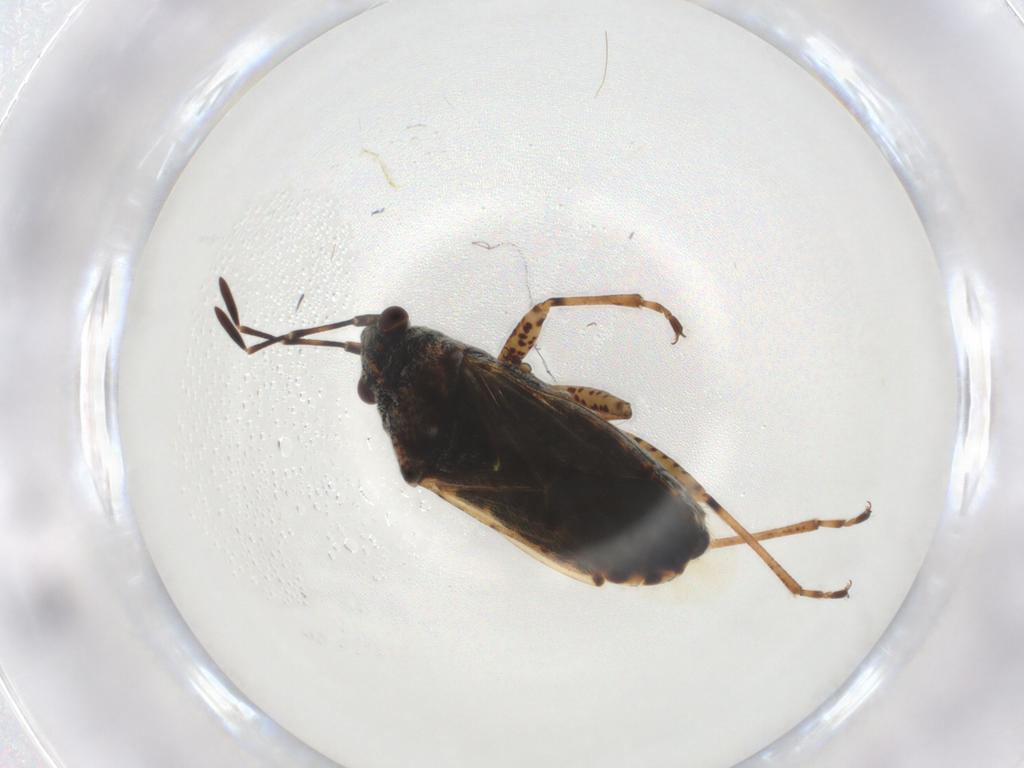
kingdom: Animalia
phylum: Arthropoda
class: Insecta
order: Hemiptera
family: Lygaeidae
